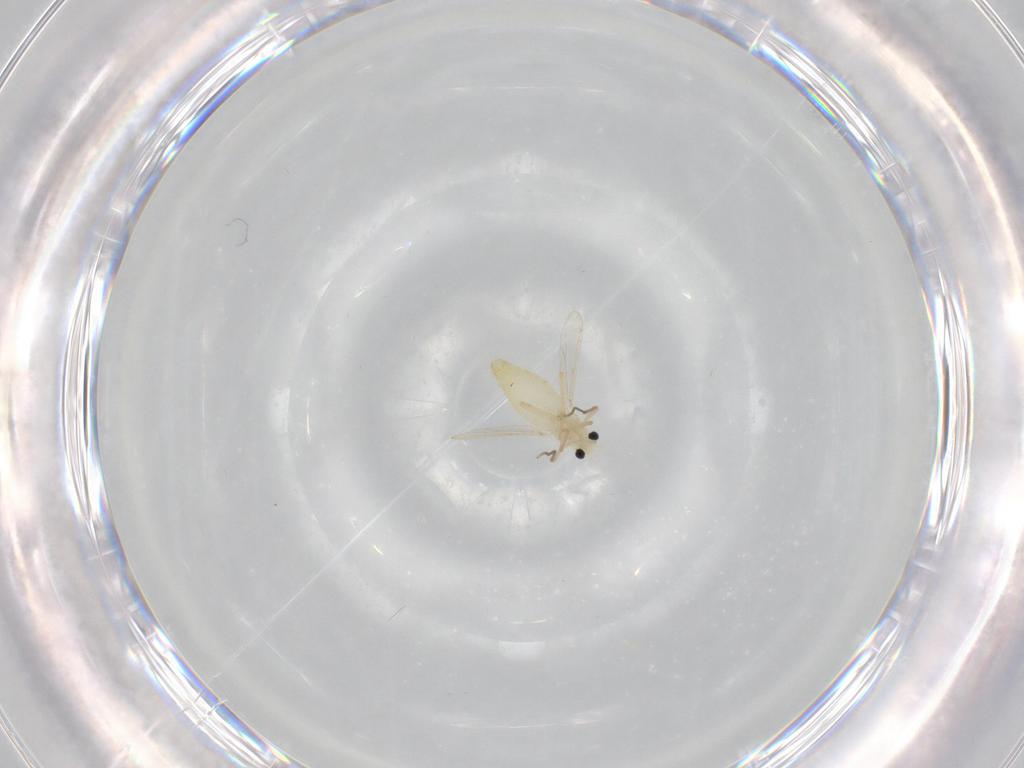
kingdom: Animalia
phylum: Arthropoda
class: Insecta
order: Diptera
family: Chironomidae
